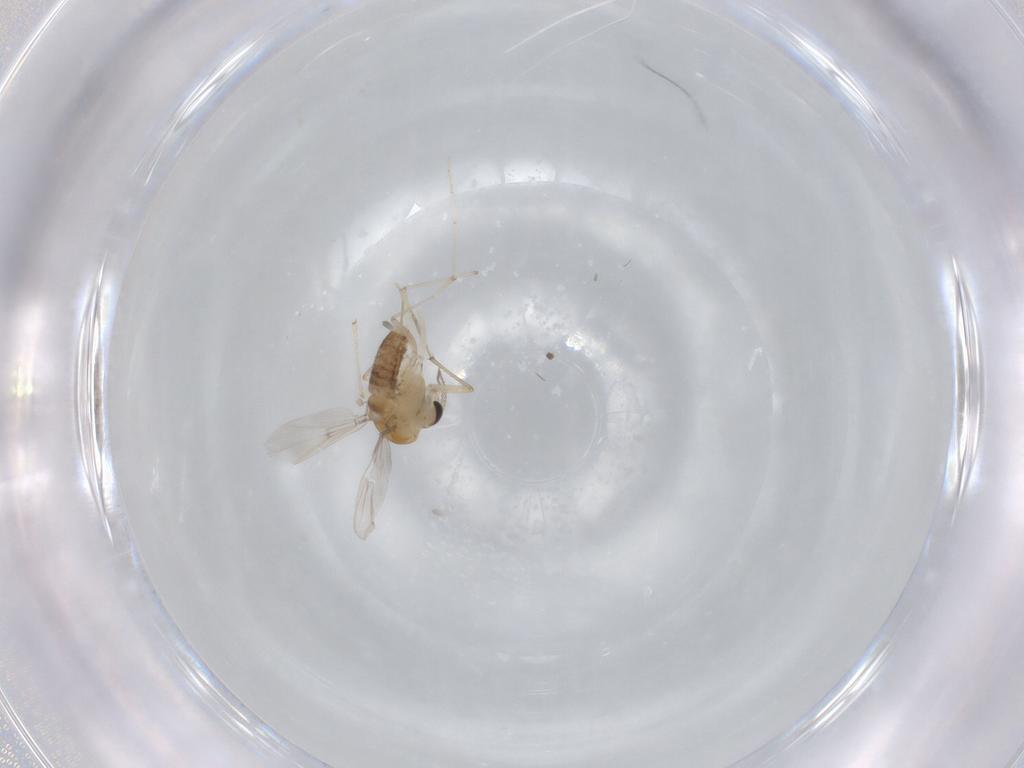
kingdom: Animalia
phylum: Arthropoda
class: Insecta
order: Diptera
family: Chironomidae
